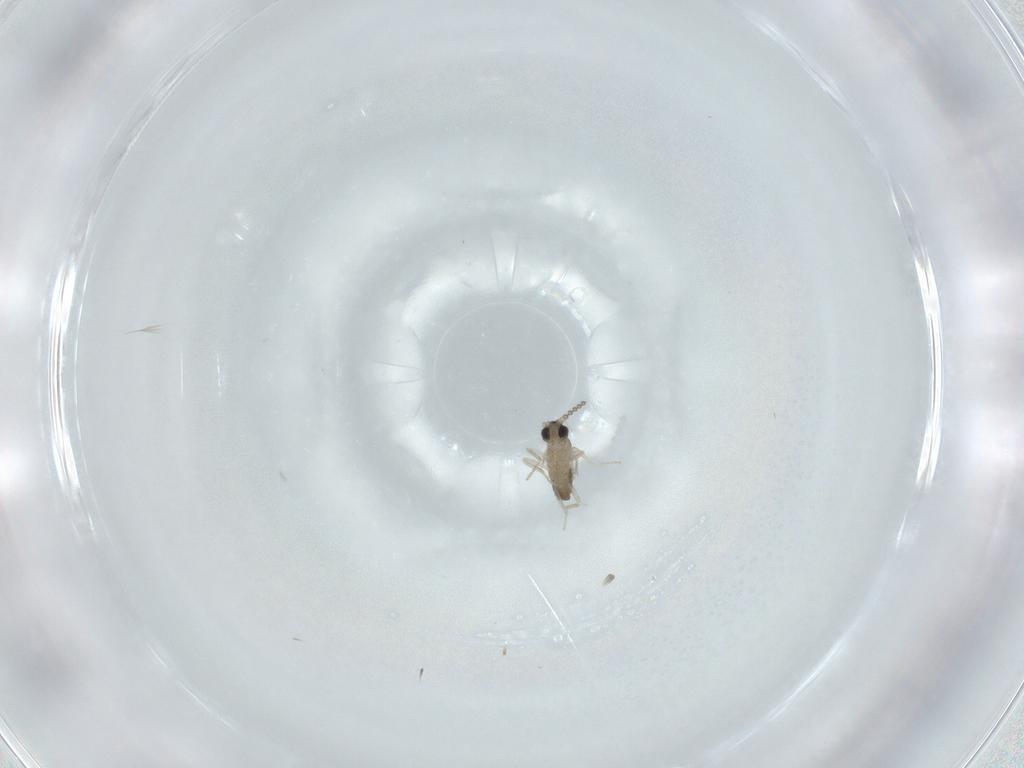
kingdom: Animalia
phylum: Arthropoda
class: Insecta
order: Diptera
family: Cecidomyiidae
